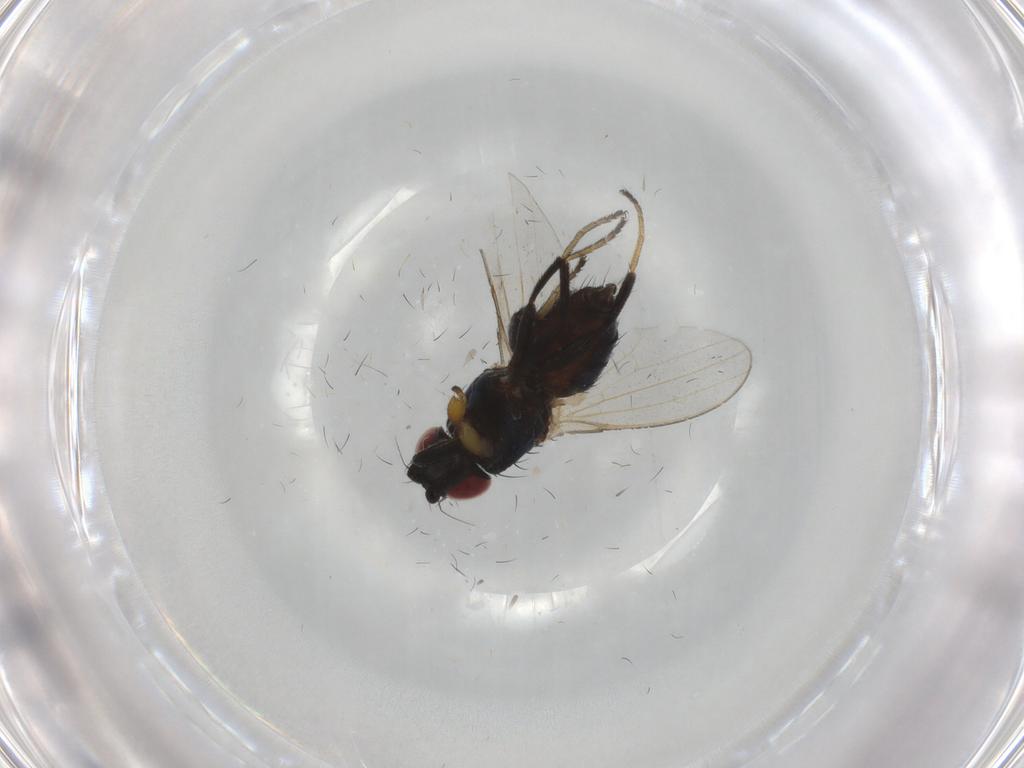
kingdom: Animalia
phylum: Arthropoda
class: Insecta
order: Diptera
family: Milichiidae
